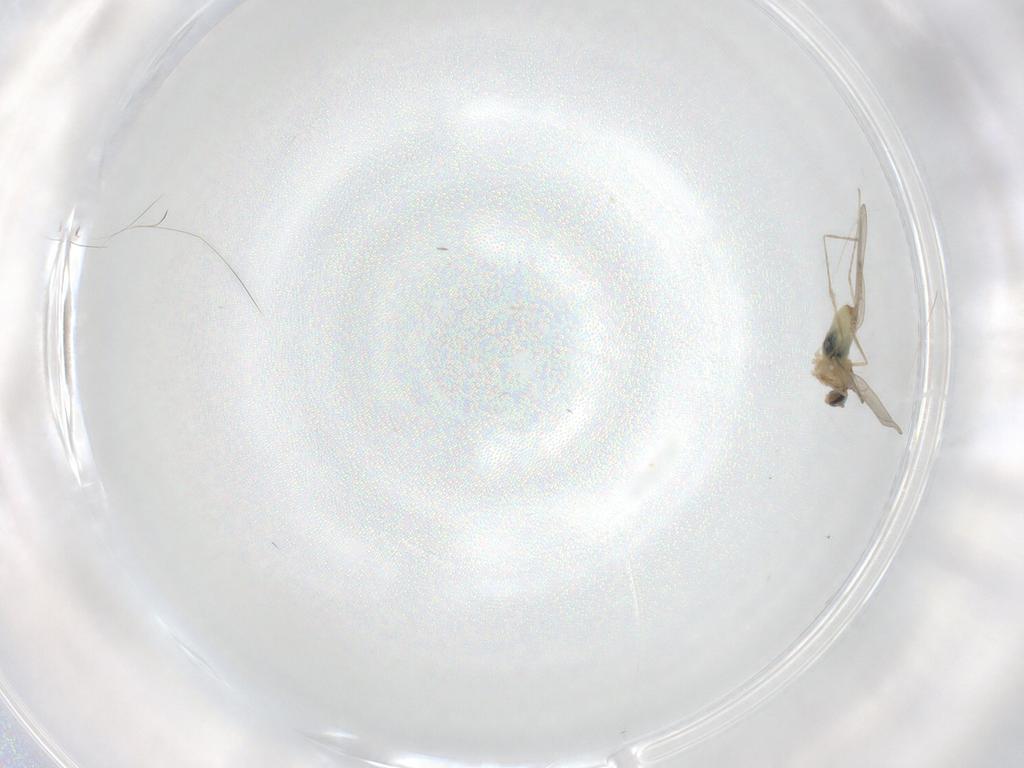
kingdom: Animalia
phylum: Arthropoda
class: Insecta
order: Diptera
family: Cecidomyiidae
